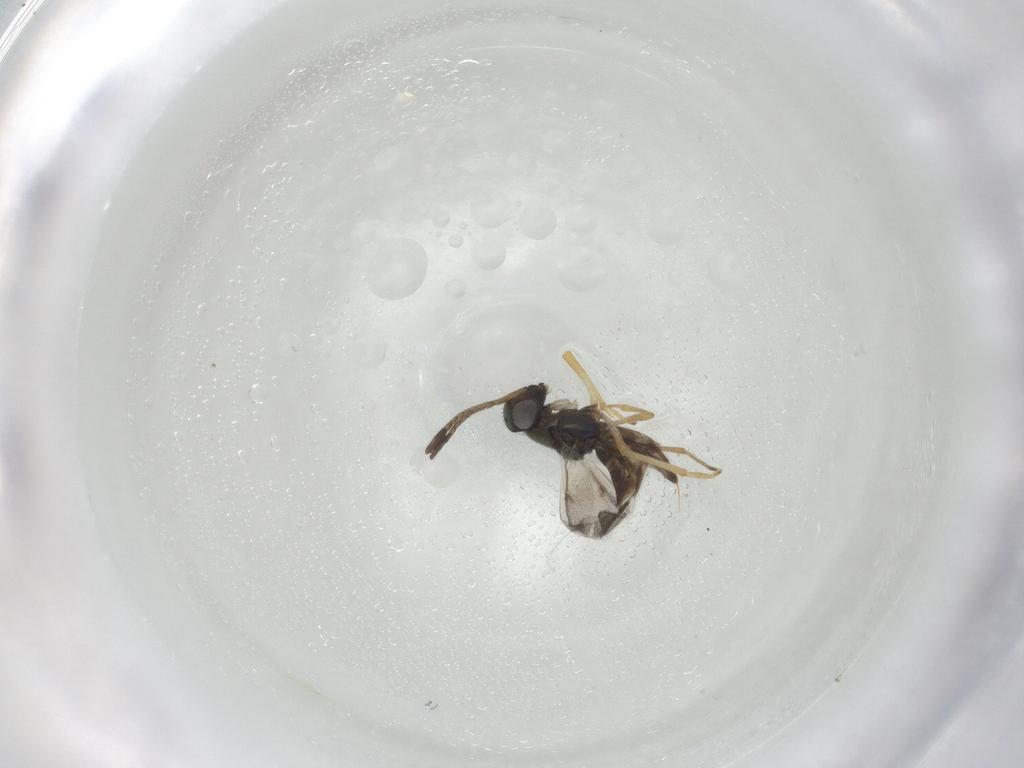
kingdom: Animalia
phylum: Arthropoda
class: Insecta
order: Hymenoptera
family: Encyrtidae
